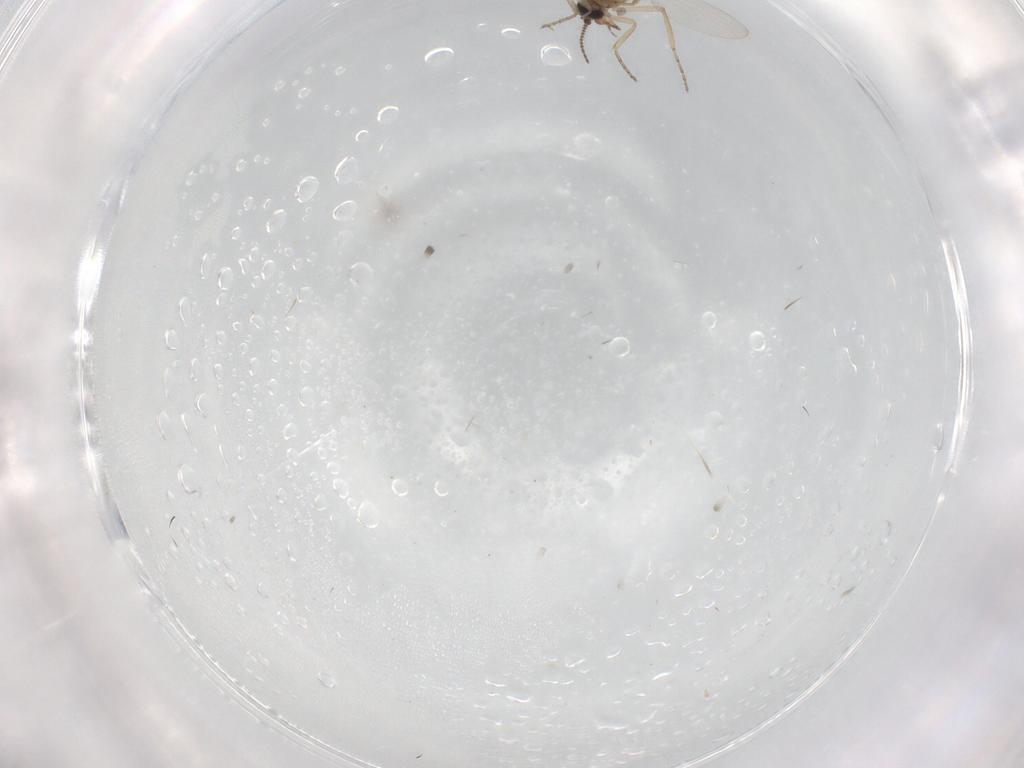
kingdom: Animalia
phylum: Arthropoda
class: Insecta
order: Diptera
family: Ceratopogonidae
